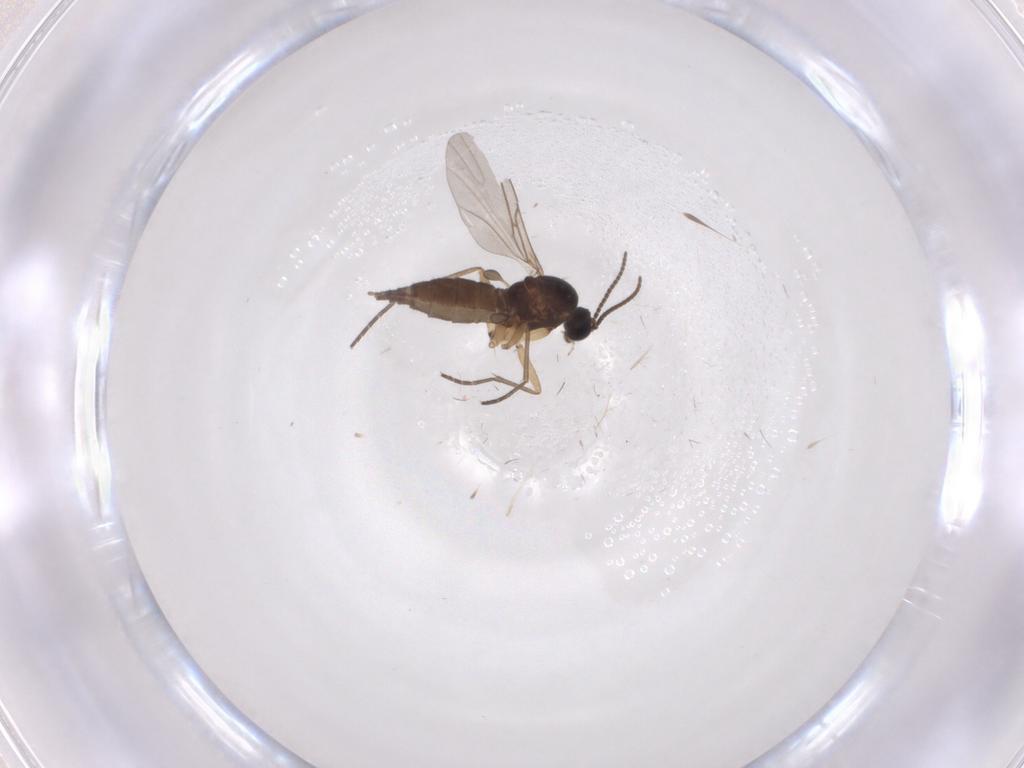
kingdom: Animalia
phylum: Arthropoda
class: Insecta
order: Diptera
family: Sciaridae
